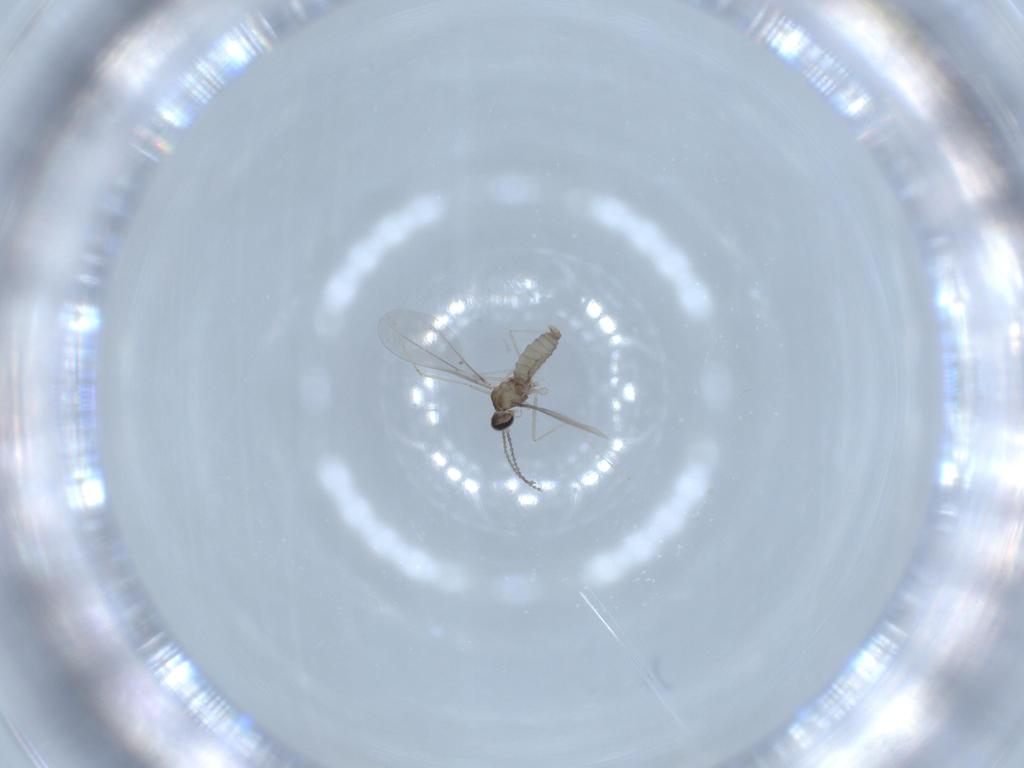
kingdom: Animalia
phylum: Arthropoda
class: Insecta
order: Diptera
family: Cecidomyiidae
